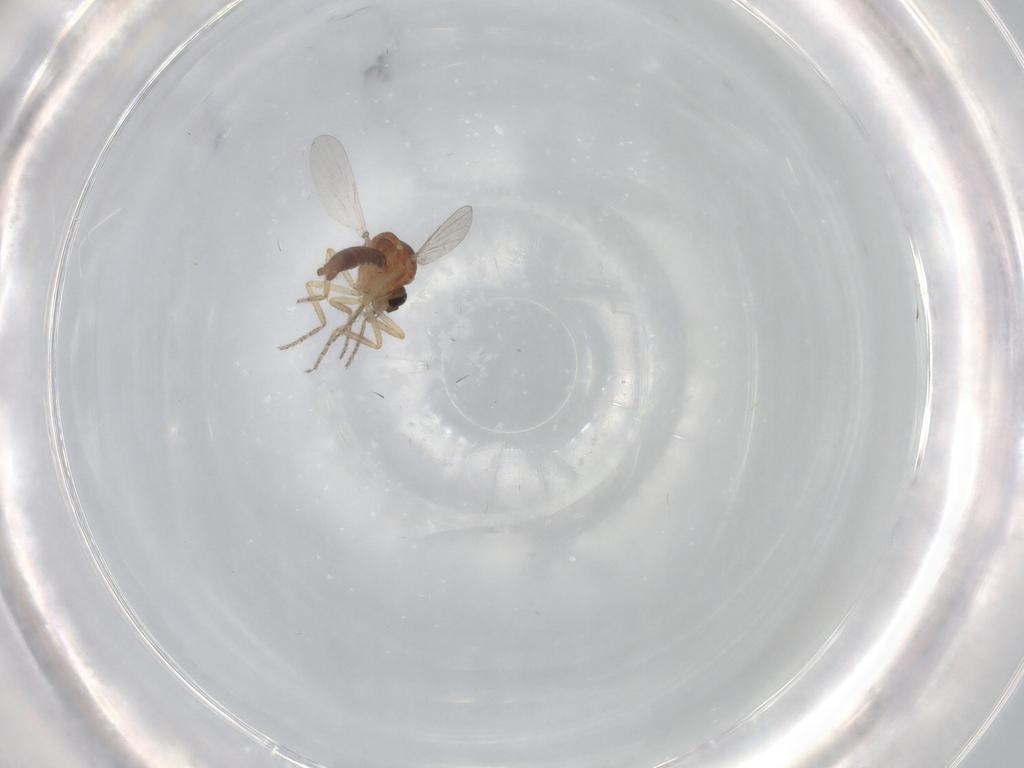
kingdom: Animalia
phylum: Arthropoda
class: Insecta
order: Diptera
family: Ceratopogonidae
